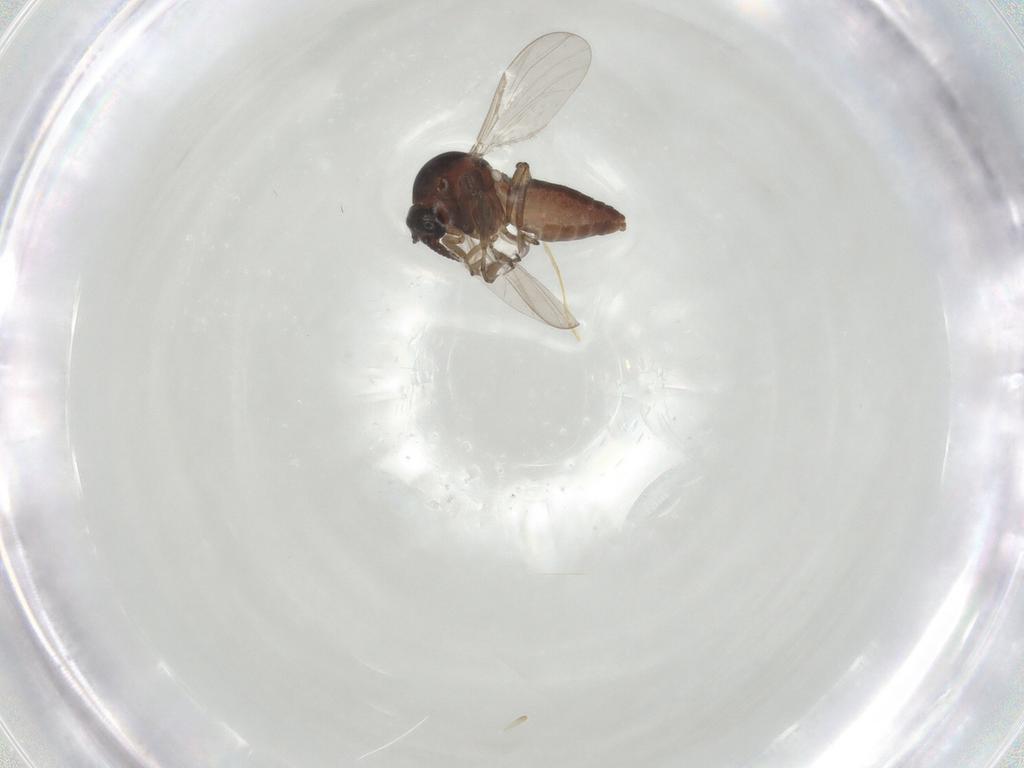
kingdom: Animalia
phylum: Arthropoda
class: Insecta
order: Diptera
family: Ceratopogonidae
